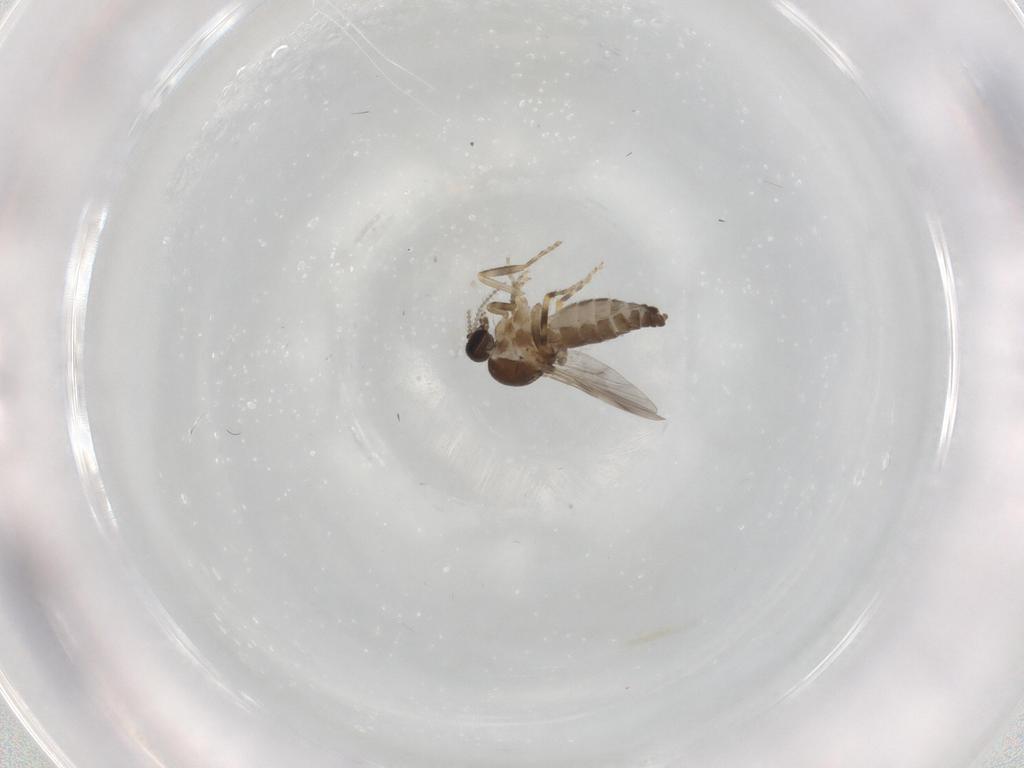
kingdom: Animalia
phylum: Arthropoda
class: Insecta
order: Diptera
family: Ceratopogonidae
